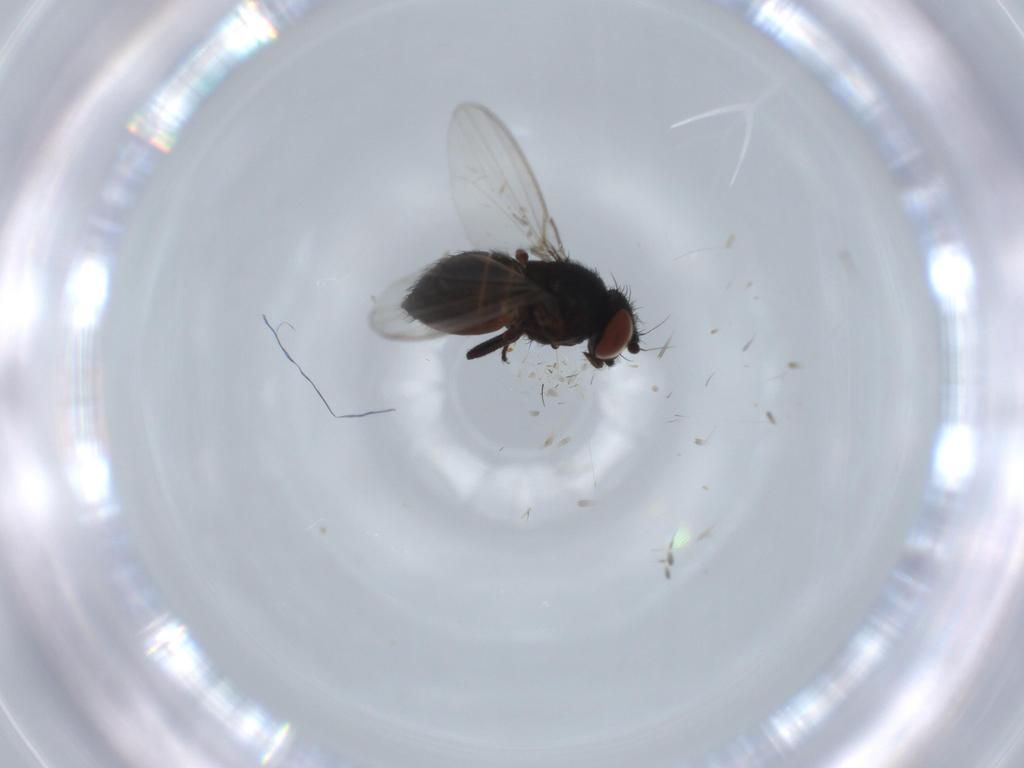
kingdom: Animalia
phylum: Arthropoda
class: Insecta
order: Diptera
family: Milichiidae
